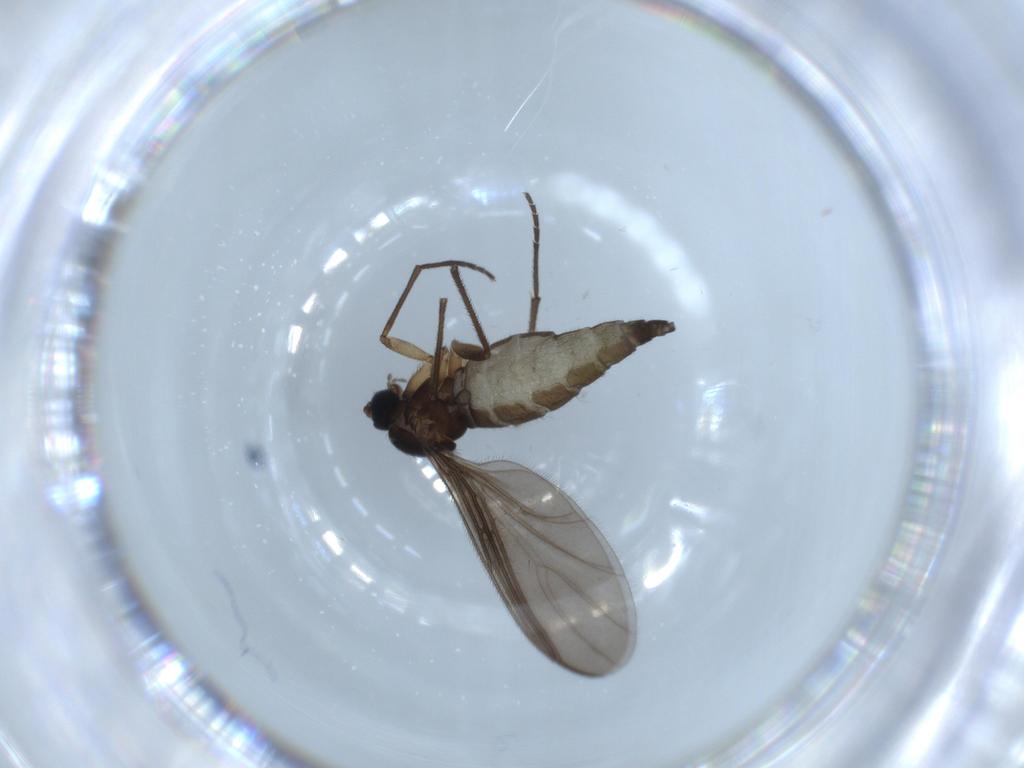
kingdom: Animalia
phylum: Arthropoda
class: Insecta
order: Diptera
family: Sciaridae
